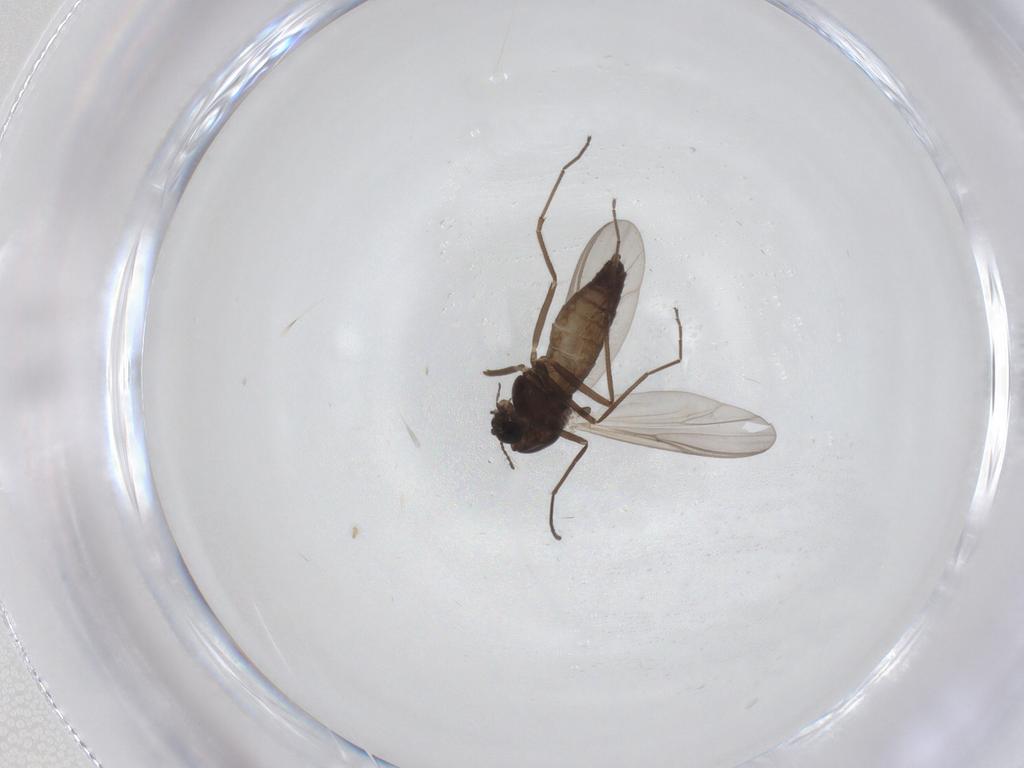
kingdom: Animalia
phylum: Arthropoda
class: Insecta
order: Diptera
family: Chironomidae
